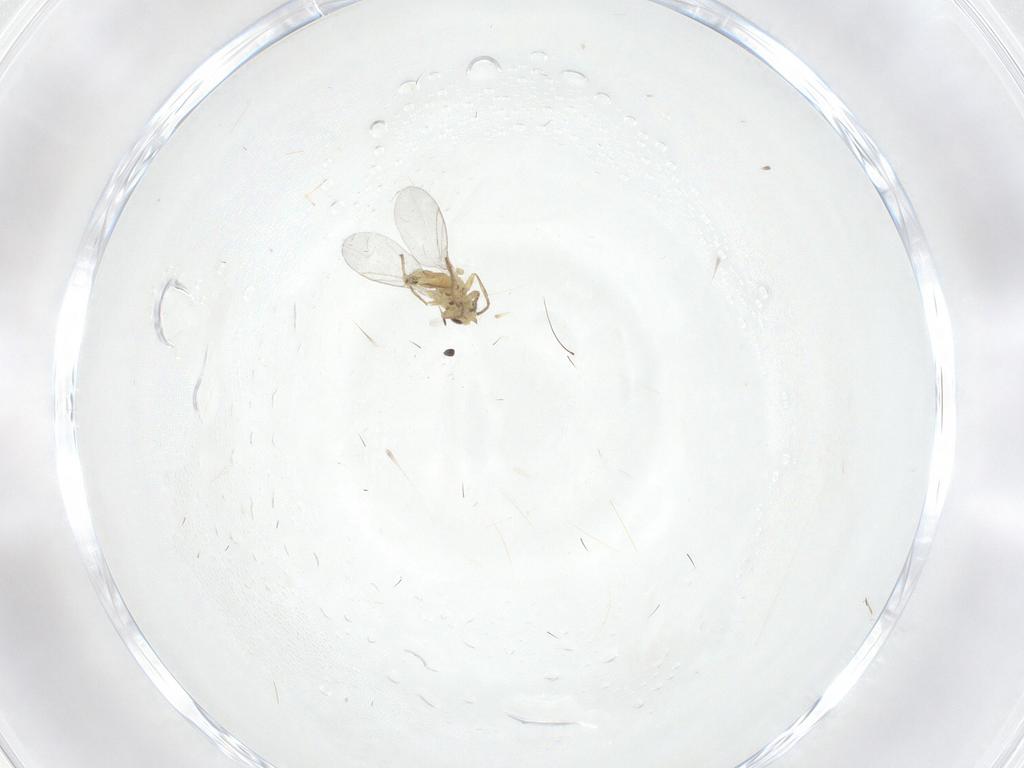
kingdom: Animalia
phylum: Arthropoda
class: Insecta
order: Diptera
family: Agromyzidae
